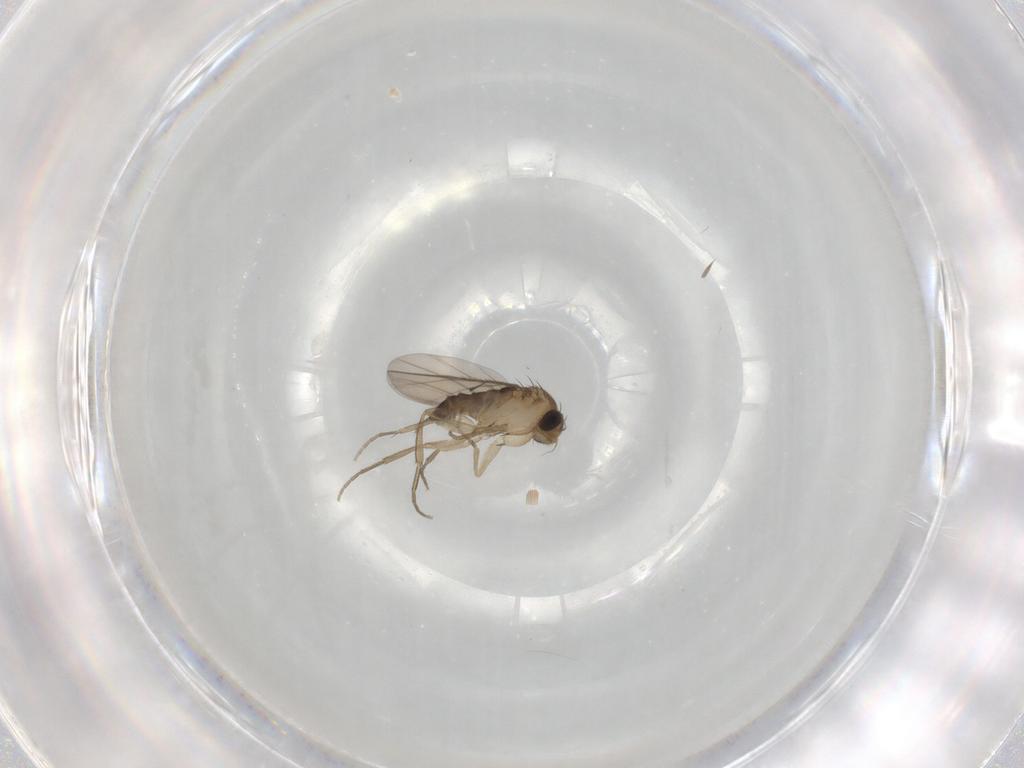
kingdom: Animalia
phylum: Arthropoda
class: Insecta
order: Diptera
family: Phoridae
